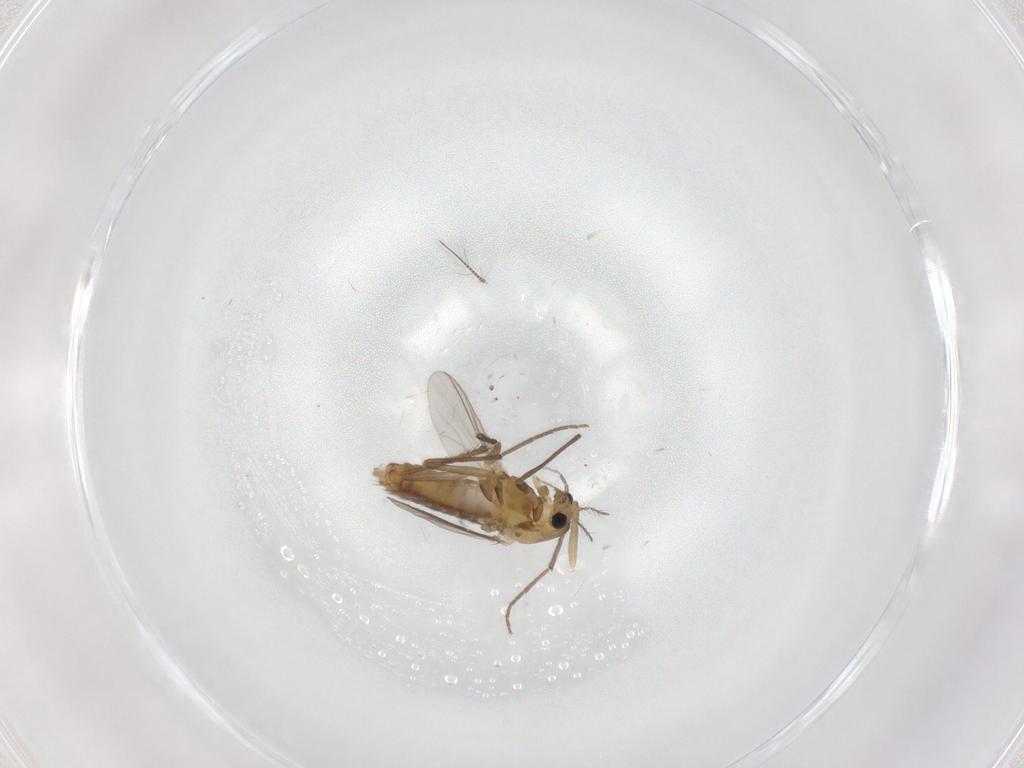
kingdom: Animalia
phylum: Arthropoda
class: Insecta
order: Diptera
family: Chironomidae
